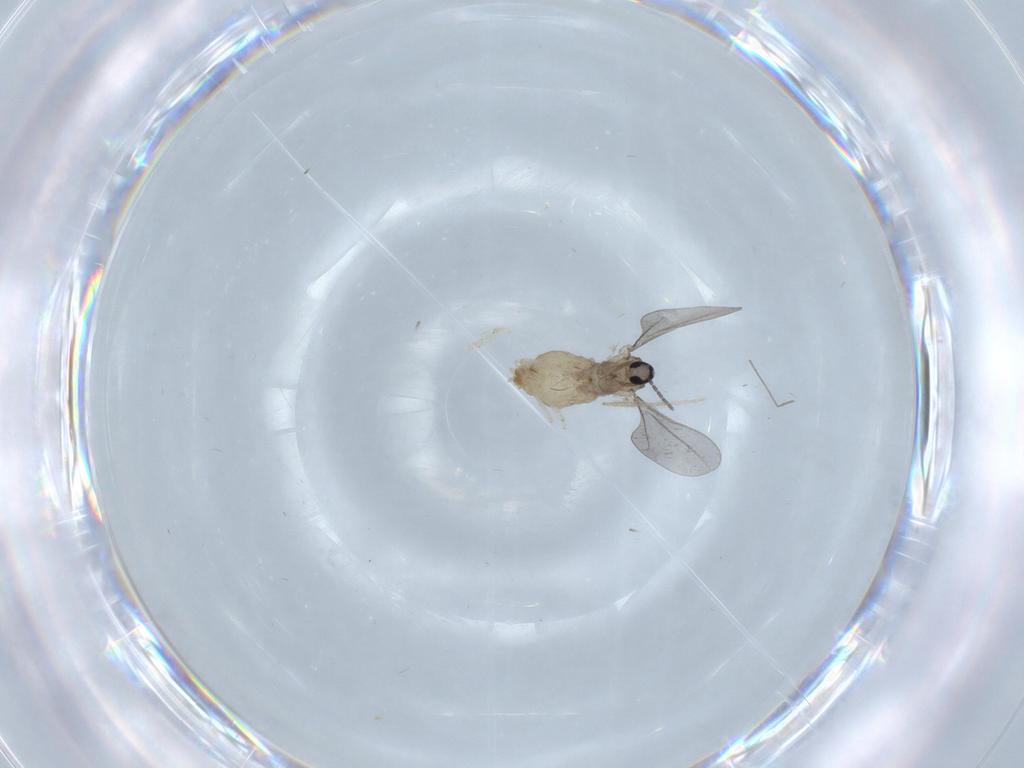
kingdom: Animalia
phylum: Arthropoda
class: Insecta
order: Diptera
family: Cecidomyiidae
